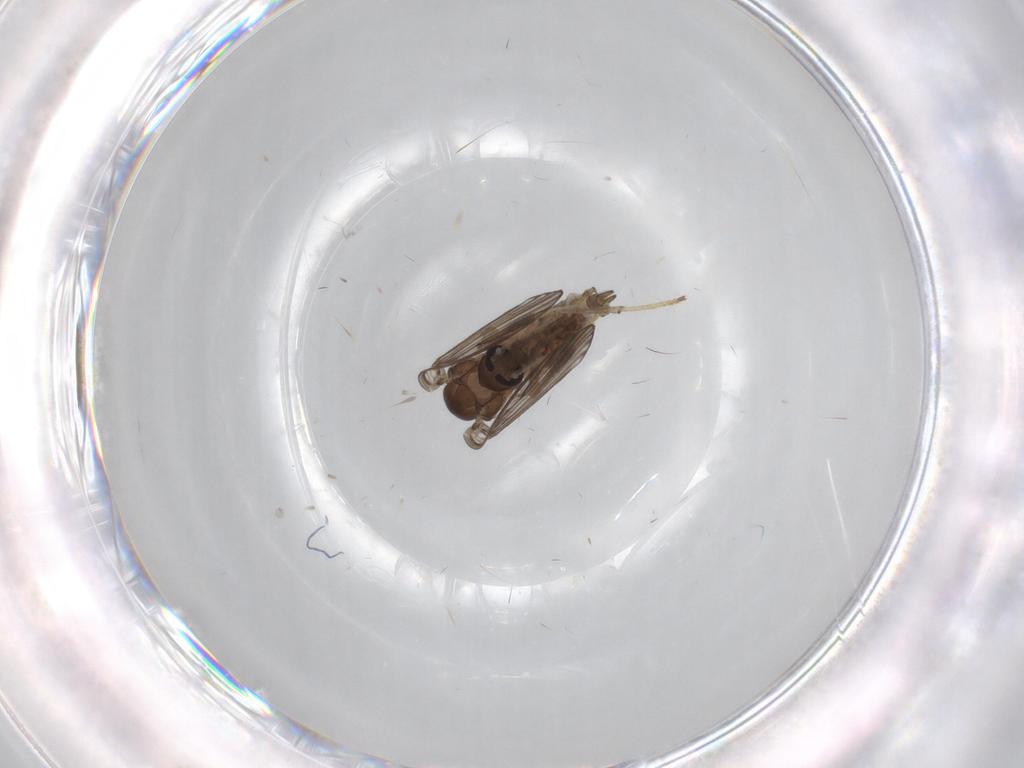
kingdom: Animalia
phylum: Arthropoda
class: Insecta
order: Diptera
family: Psychodidae
